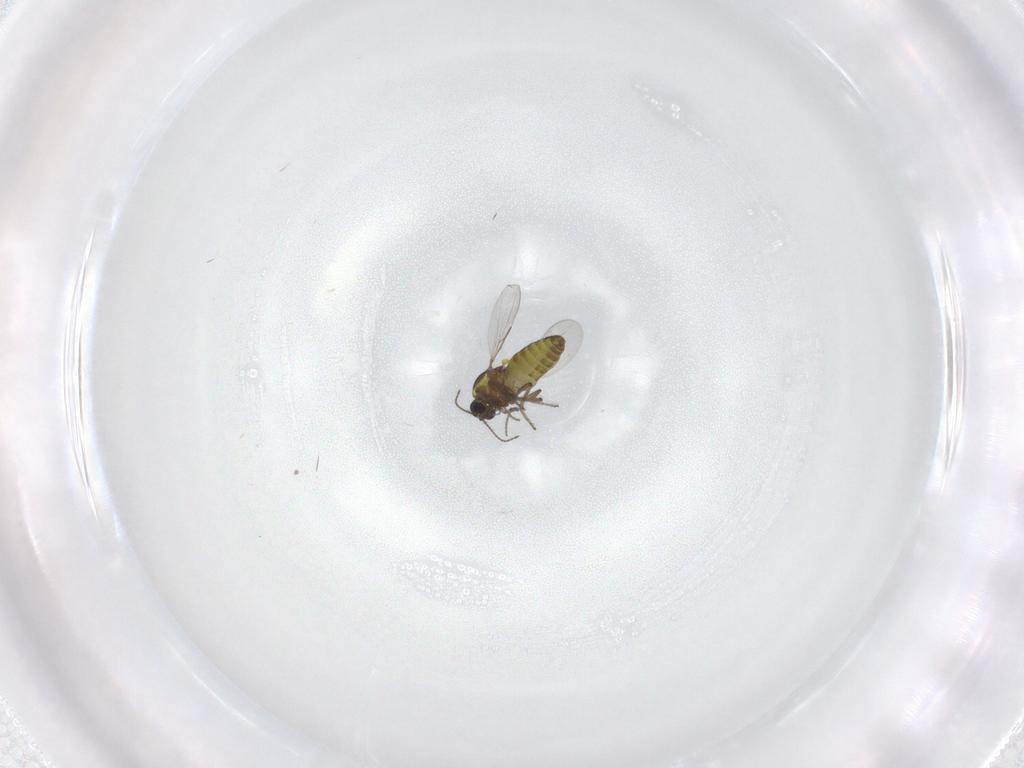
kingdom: Animalia
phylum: Arthropoda
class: Insecta
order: Diptera
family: Ceratopogonidae
